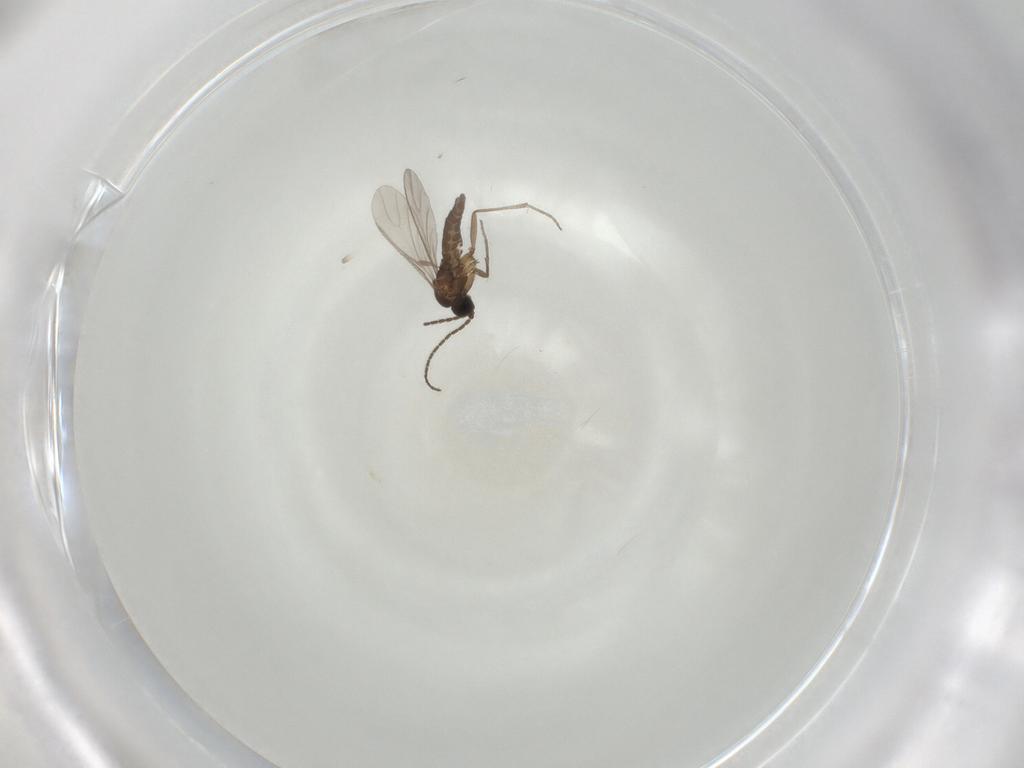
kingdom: Animalia
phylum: Arthropoda
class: Insecta
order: Diptera
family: Sciaridae
